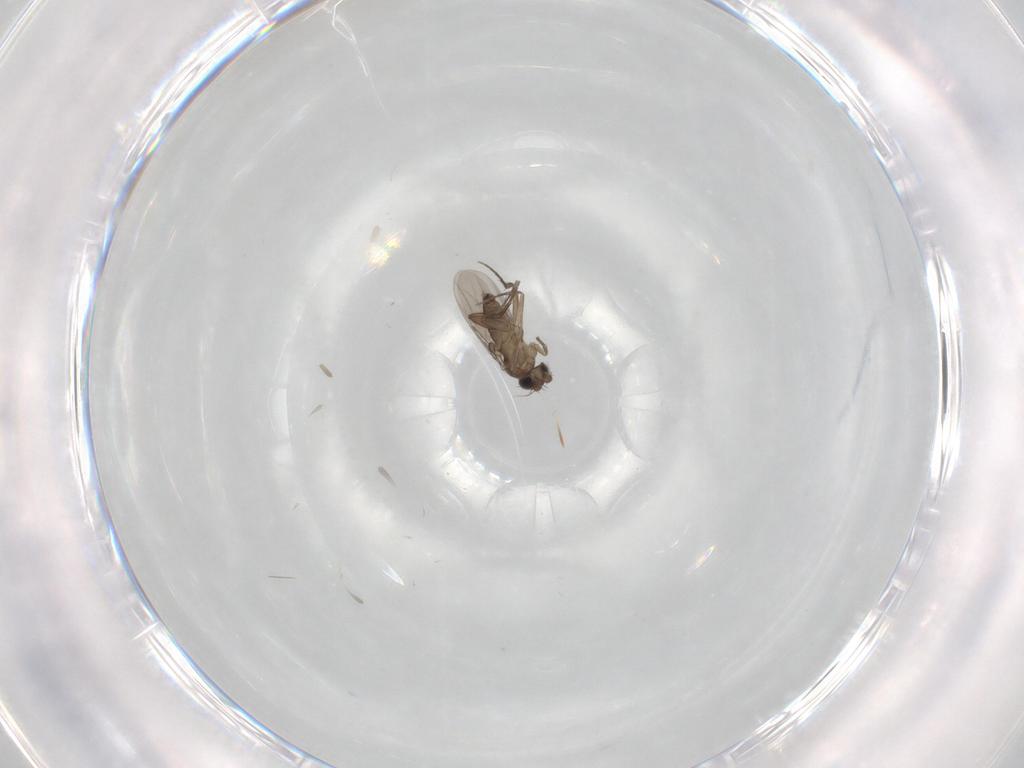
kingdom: Animalia
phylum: Arthropoda
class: Insecta
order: Diptera
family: Phoridae
